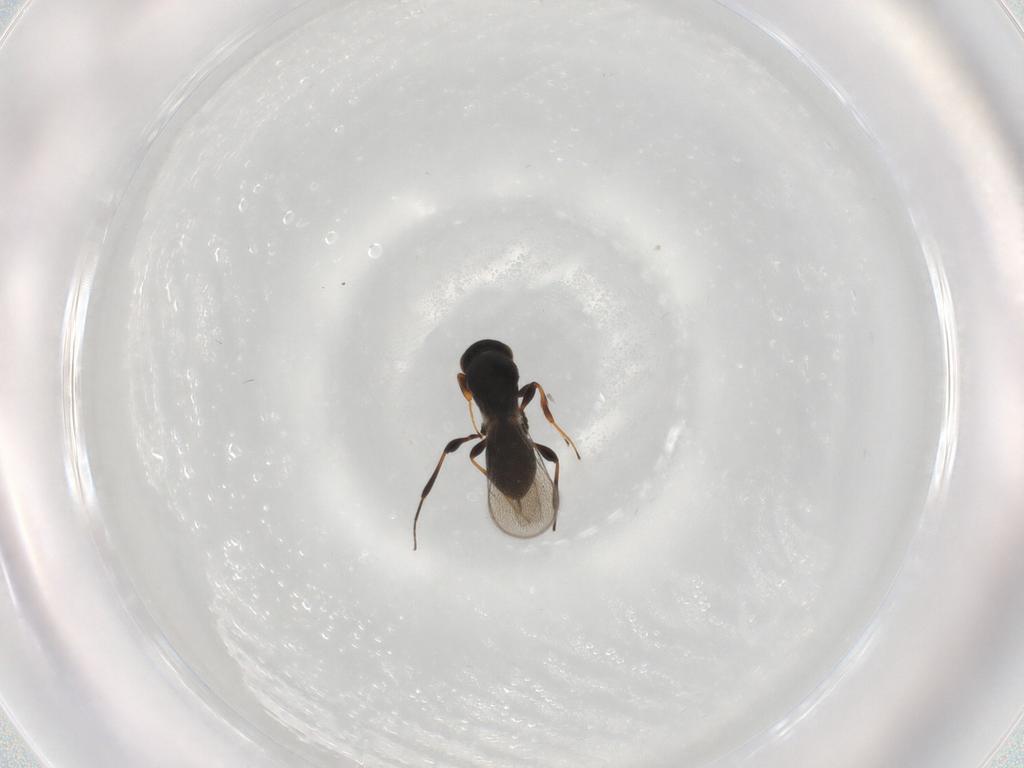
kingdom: Animalia
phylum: Arthropoda
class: Insecta
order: Hymenoptera
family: Platygastridae
